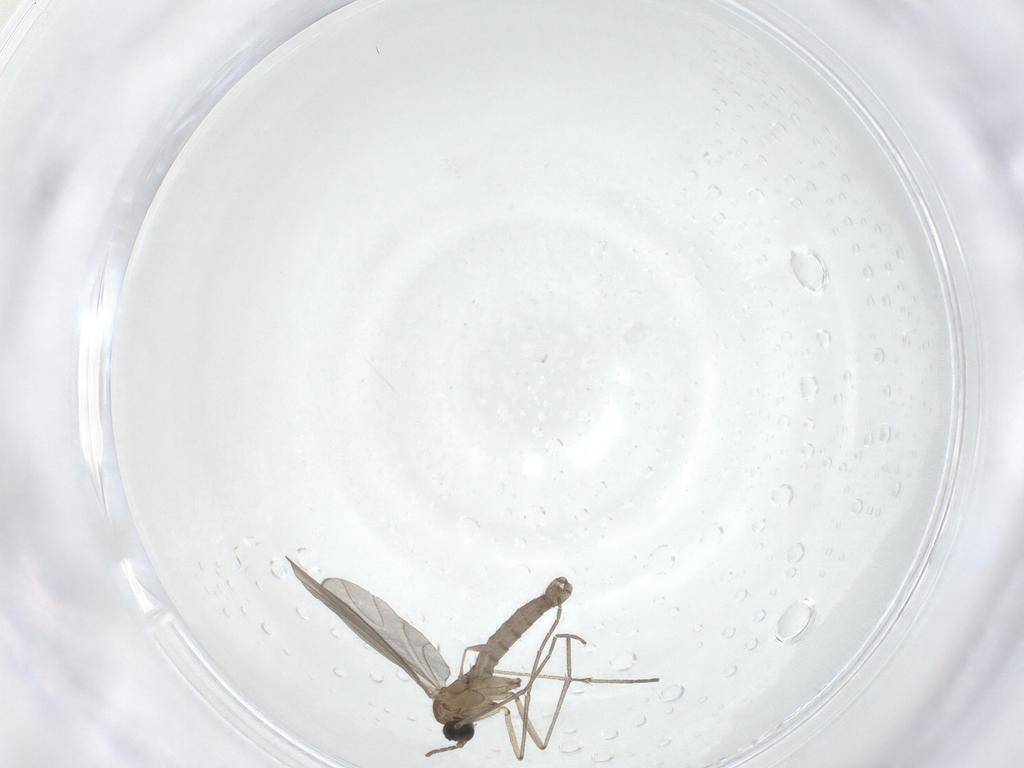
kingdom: Animalia
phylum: Arthropoda
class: Insecta
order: Diptera
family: Sciaridae
